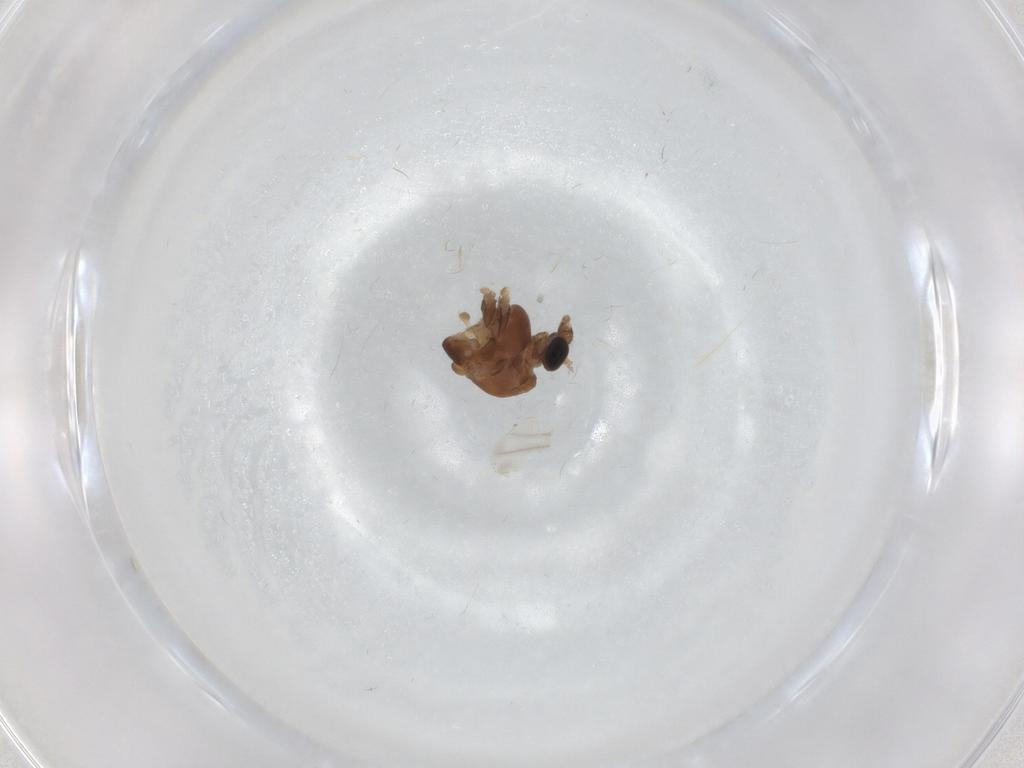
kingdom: Animalia
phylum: Arthropoda
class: Insecta
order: Diptera
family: Chironomidae
